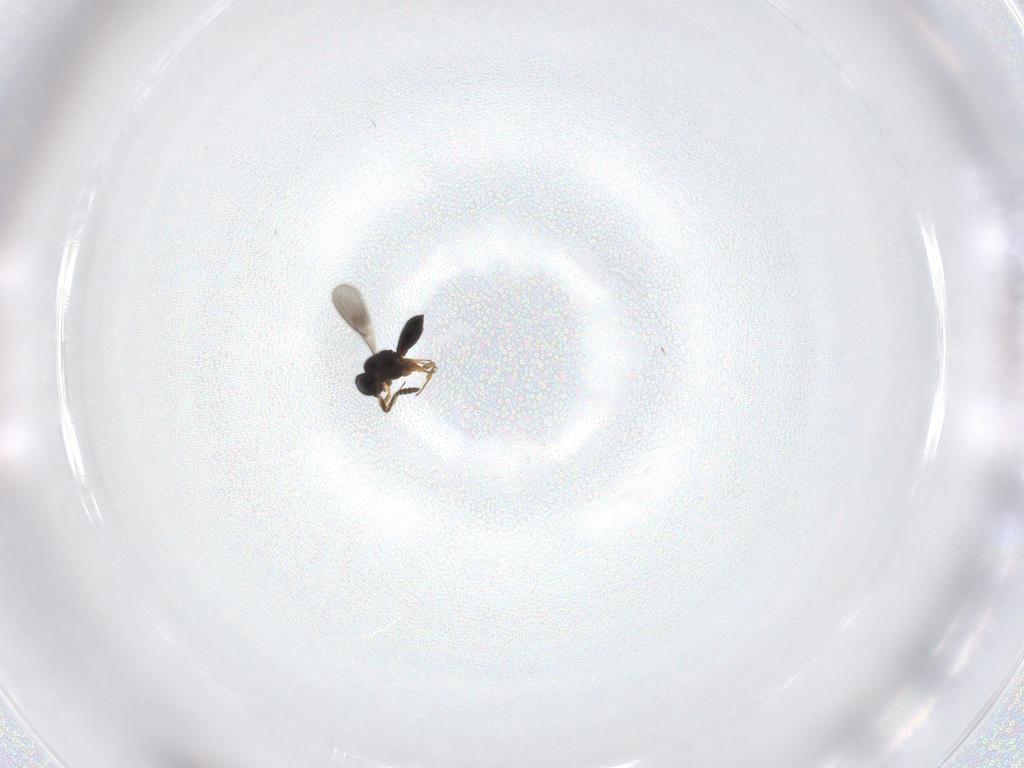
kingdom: Animalia
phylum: Arthropoda
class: Insecta
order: Hymenoptera
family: Scelionidae
